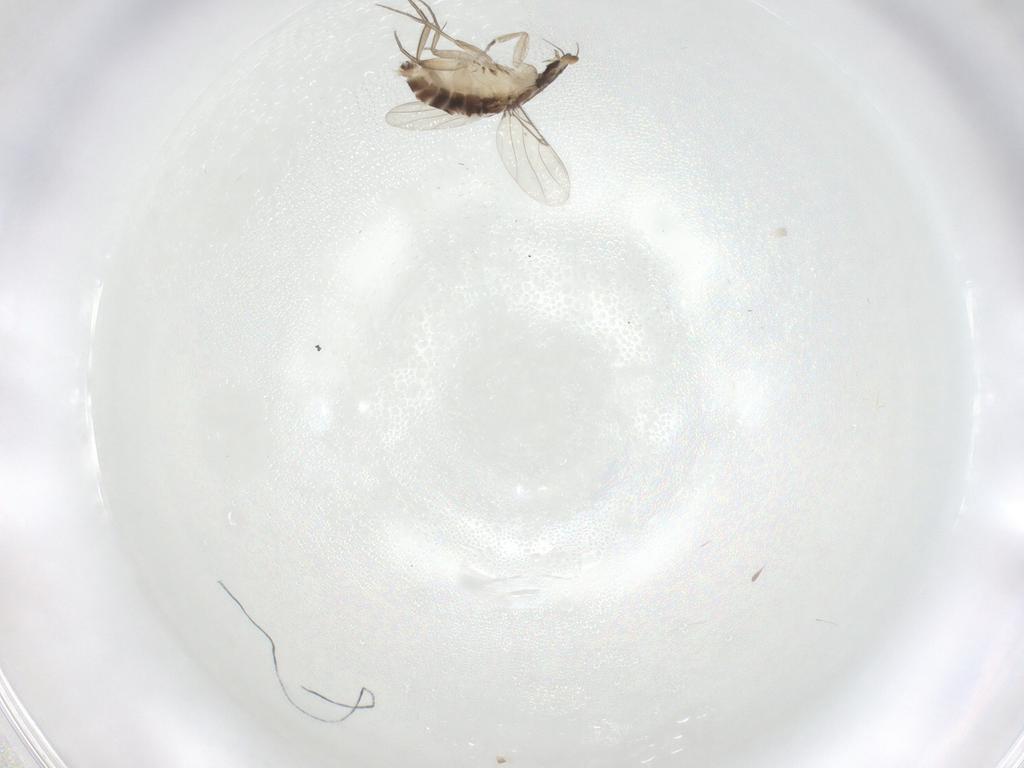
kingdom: Animalia
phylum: Arthropoda
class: Insecta
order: Diptera
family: Phoridae
